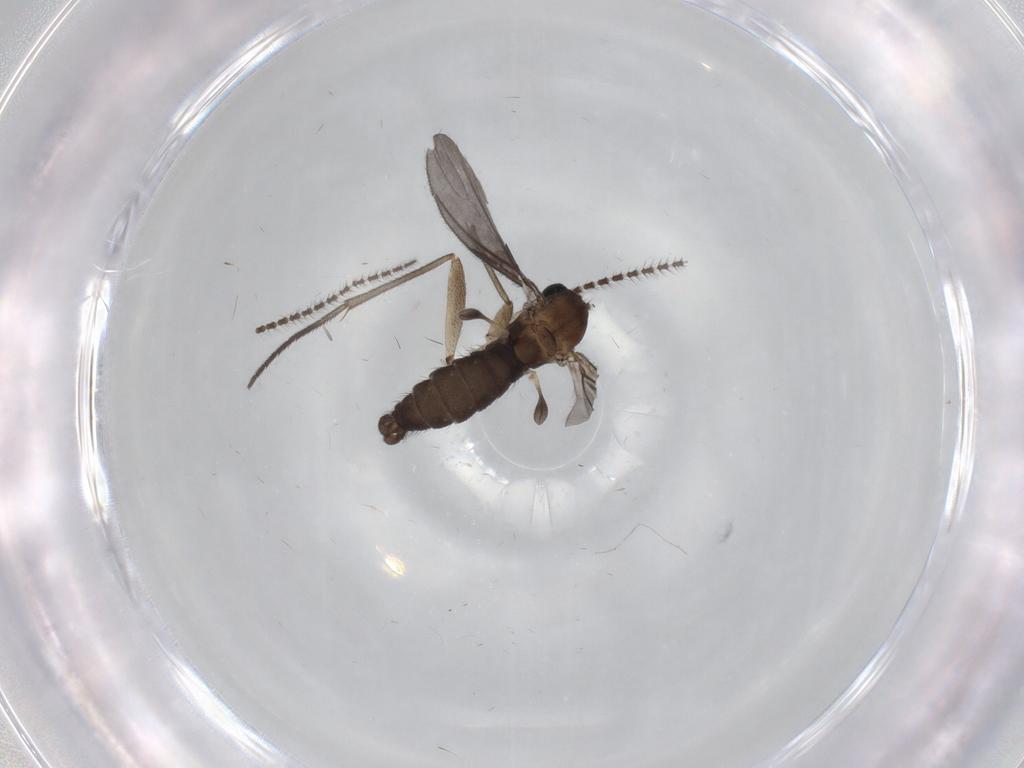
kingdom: Animalia
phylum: Arthropoda
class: Insecta
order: Diptera
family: Sciaridae
